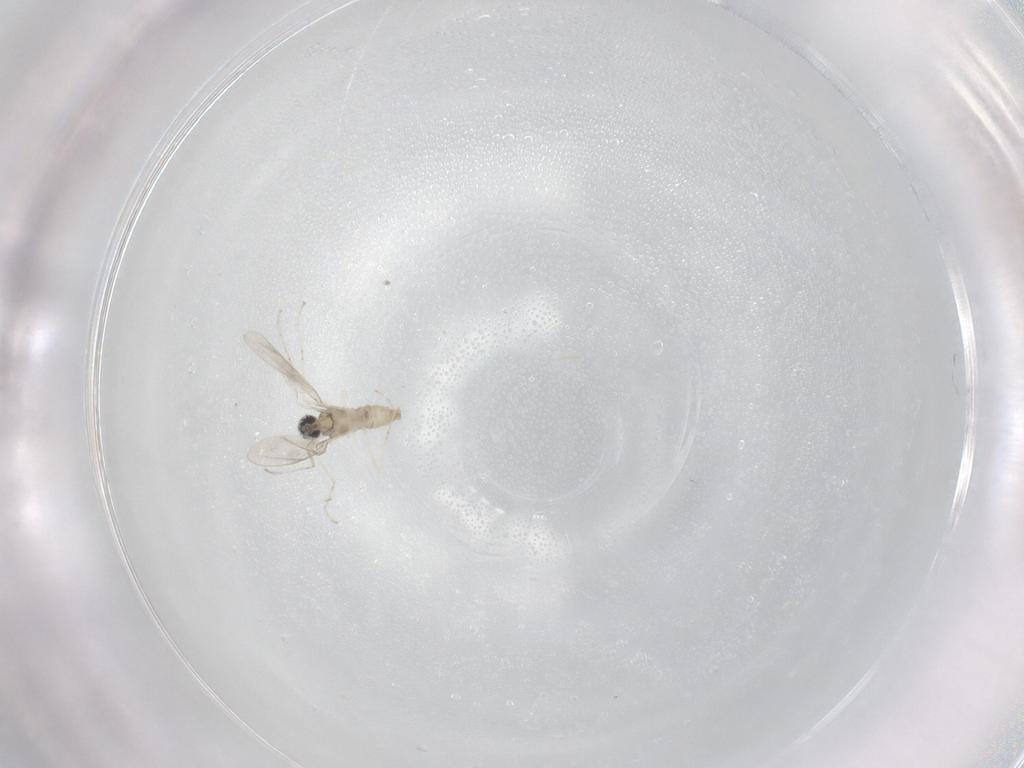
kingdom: Animalia
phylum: Arthropoda
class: Insecta
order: Diptera
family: Cecidomyiidae
